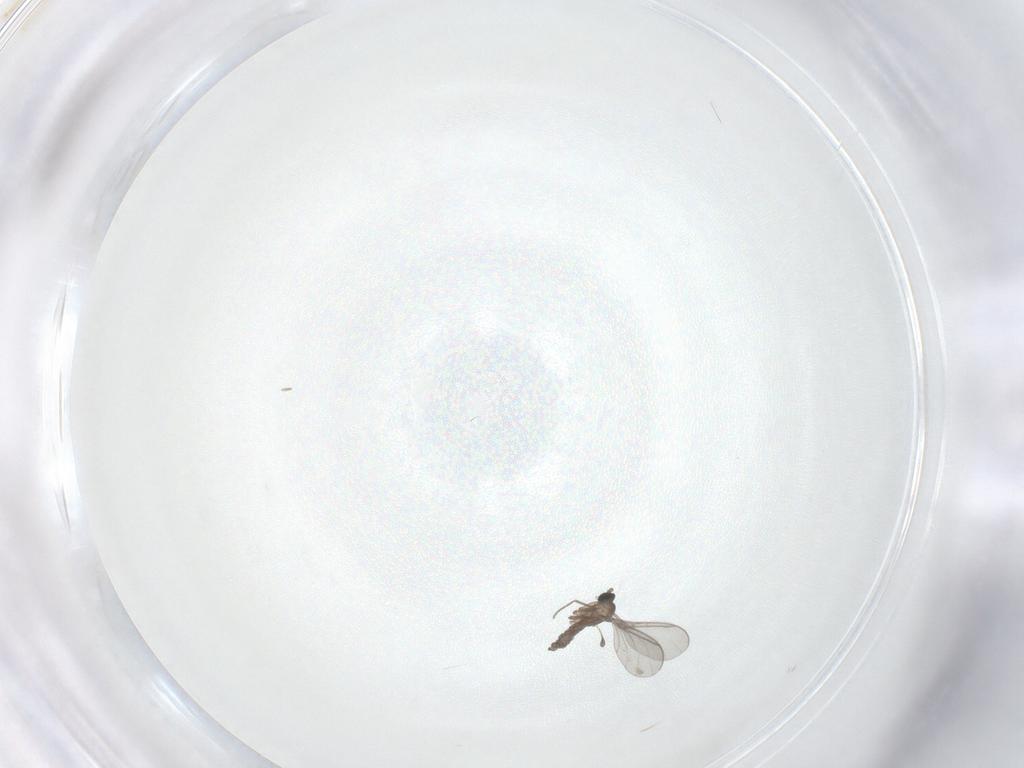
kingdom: Animalia
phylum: Arthropoda
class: Insecta
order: Diptera
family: Sciaridae
